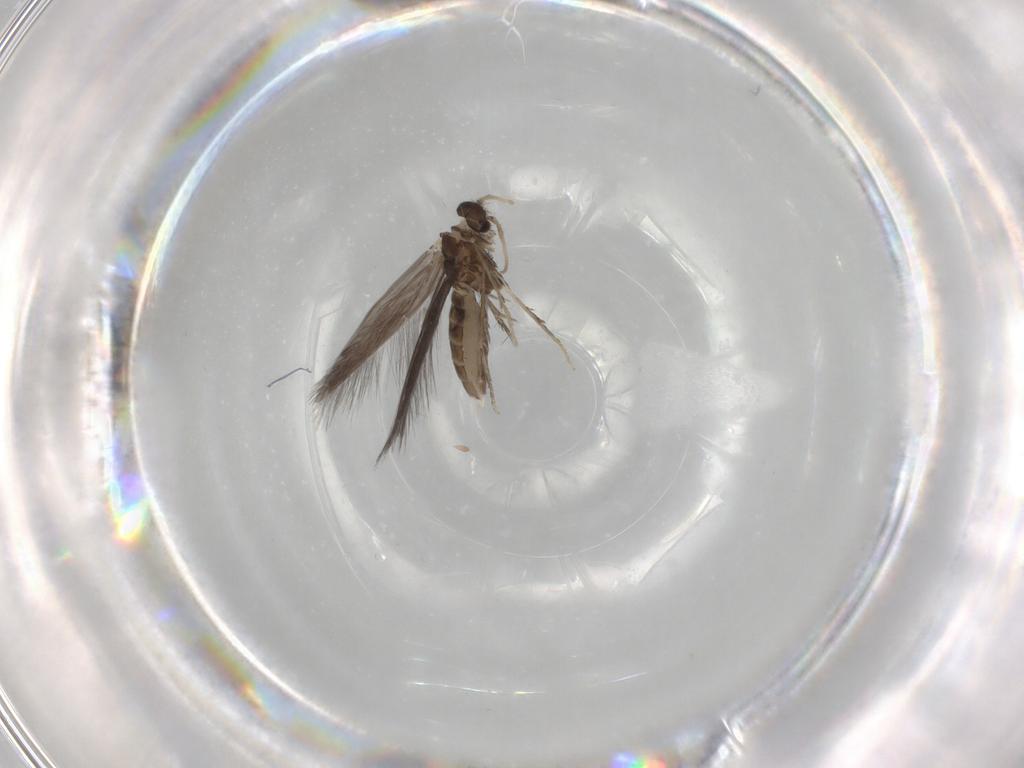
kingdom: Animalia
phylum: Arthropoda
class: Insecta
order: Trichoptera
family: Hydroptilidae
